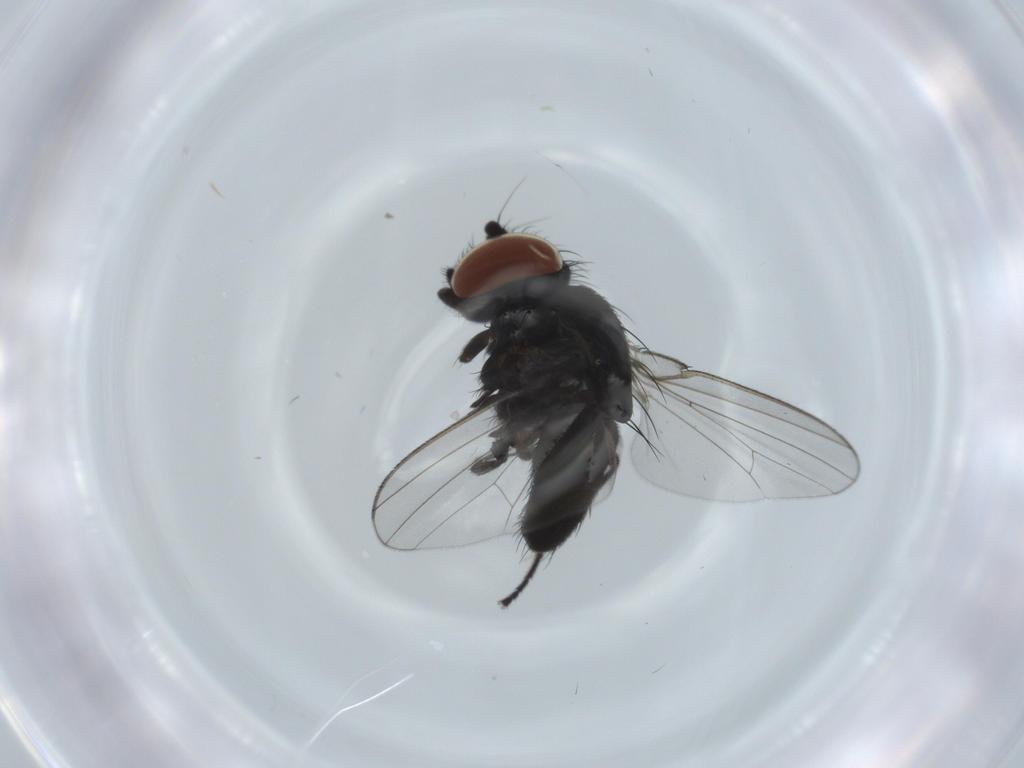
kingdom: Animalia
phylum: Arthropoda
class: Insecta
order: Diptera
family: Milichiidae
